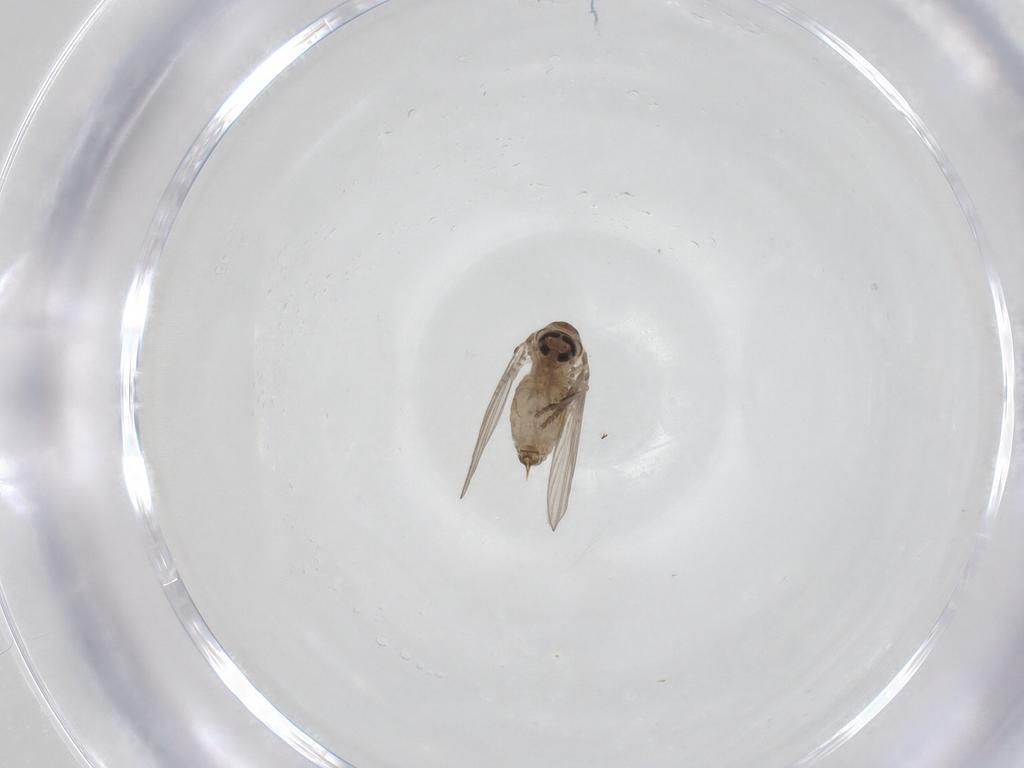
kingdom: Animalia
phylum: Arthropoda
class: Insecta
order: Diptera
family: Psychodidae
